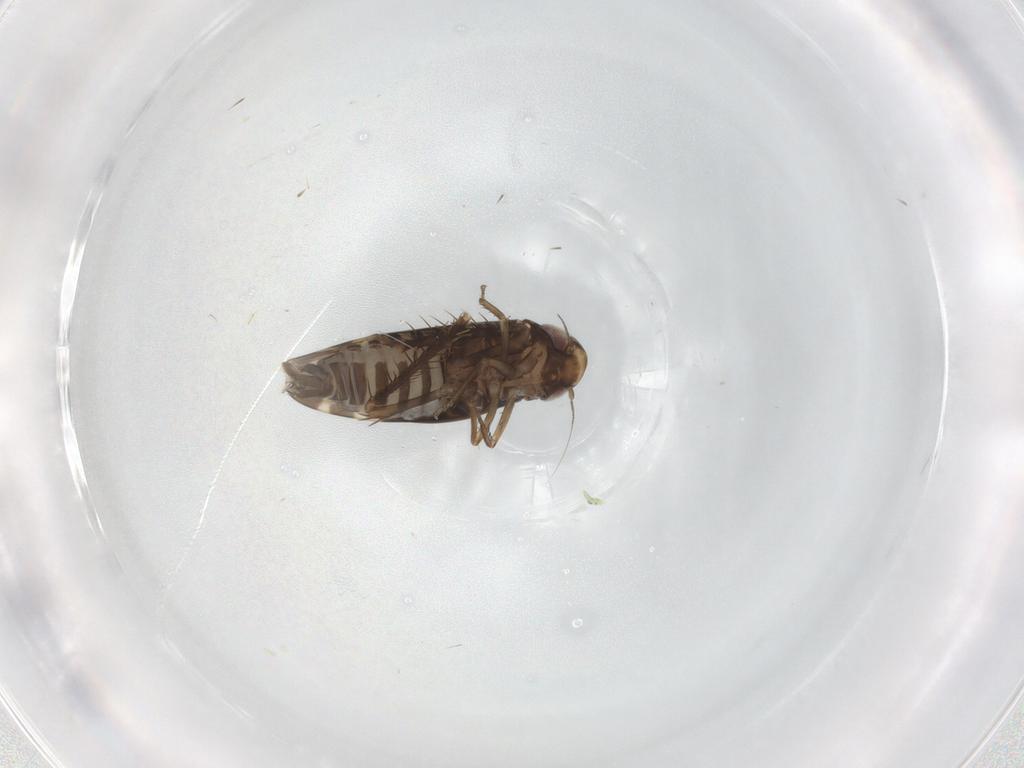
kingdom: Animalia
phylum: Arthropoda
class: Insecta
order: Hemiptera
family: Cicadellidae
